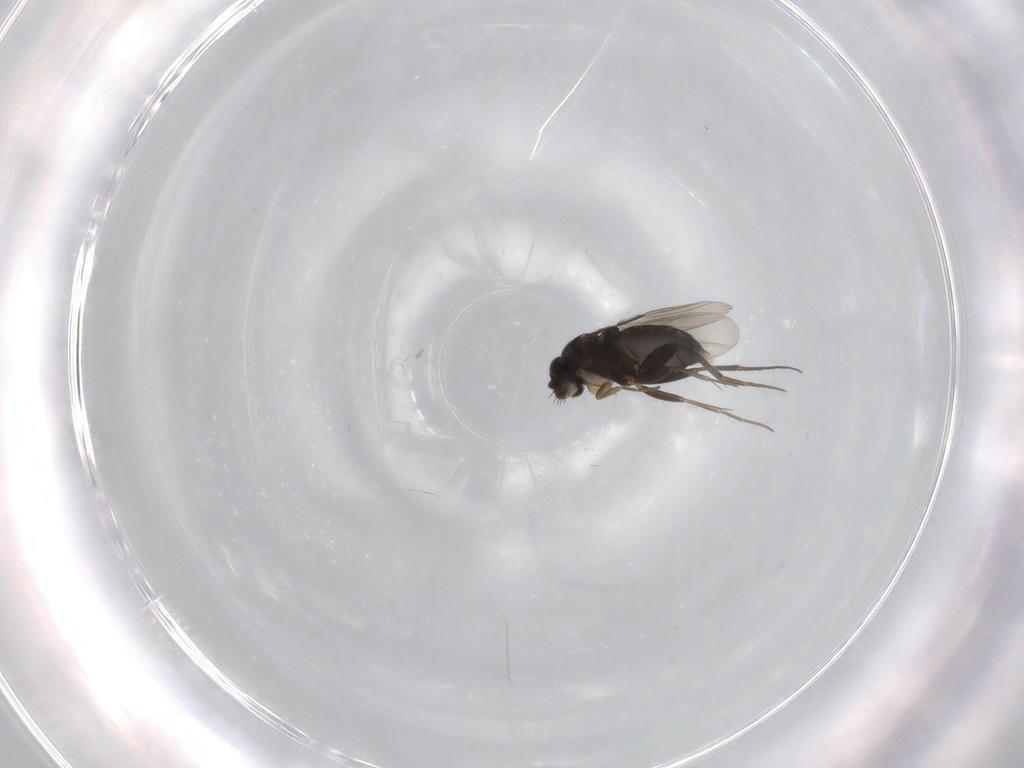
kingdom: Animalia
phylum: Arthropoda
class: Insecta
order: Diptera
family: Phoridae
